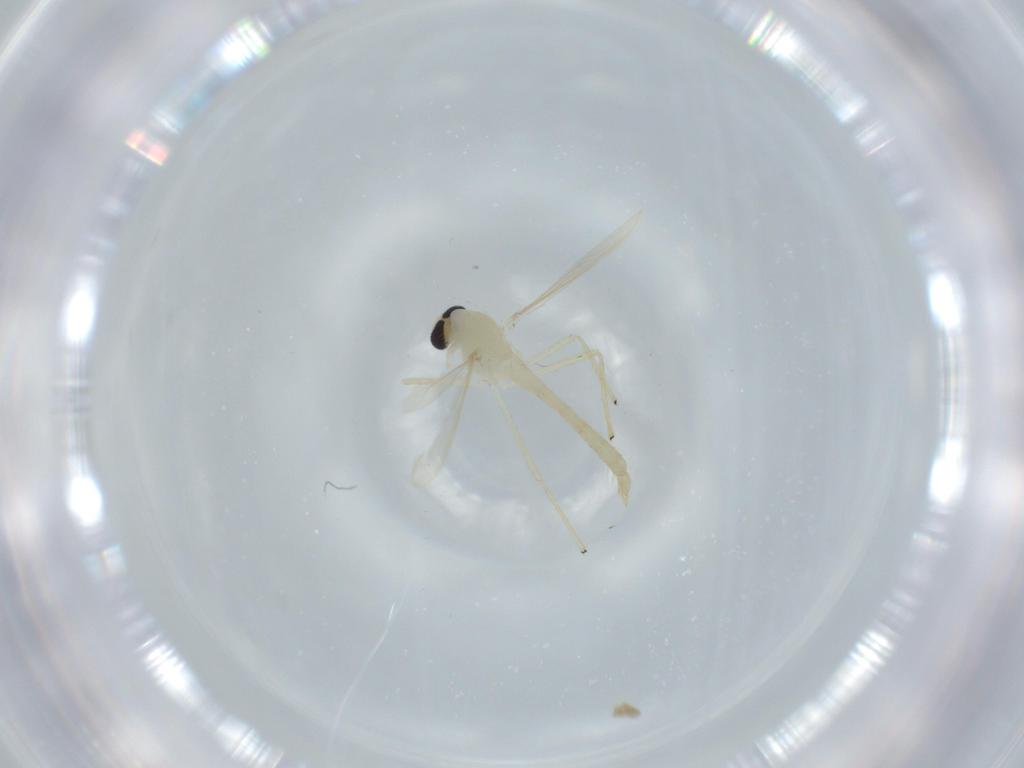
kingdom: Animalia
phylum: Arthropoda
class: Insecta
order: Diptera
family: Chironomidae
